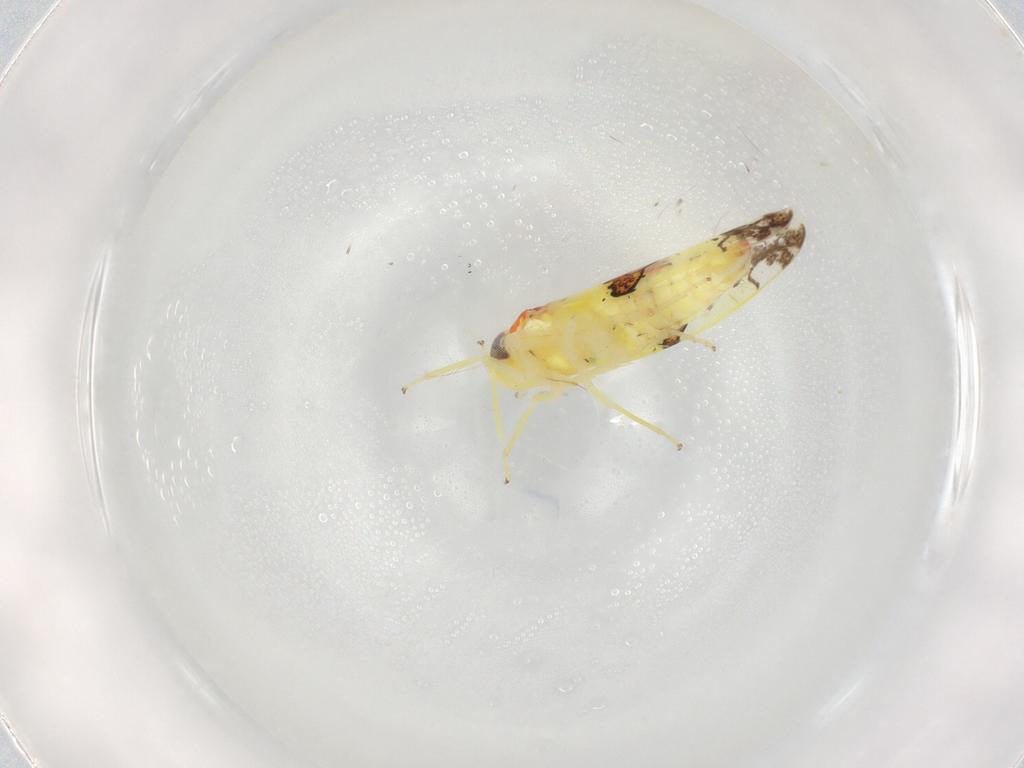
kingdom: Animalia
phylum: Arthropoda
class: Insecta
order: Hemiptera
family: Cicadellidae
